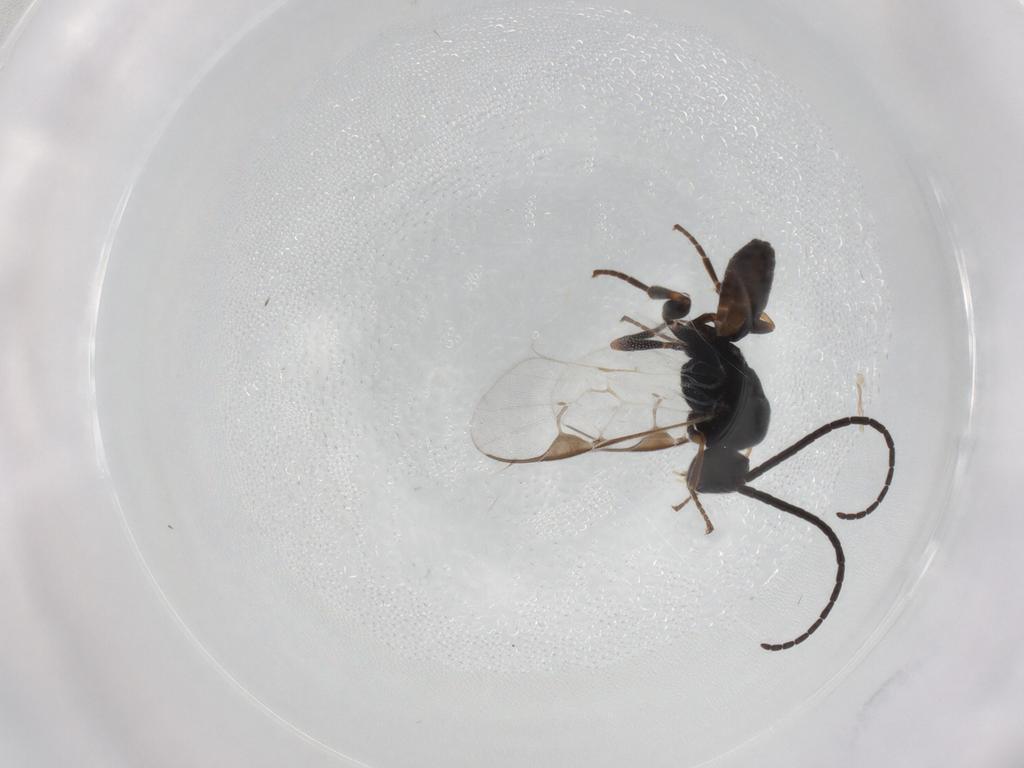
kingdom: Animalia
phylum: Arthropoda
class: Insecta
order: Hymenoptera
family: Braconidae
